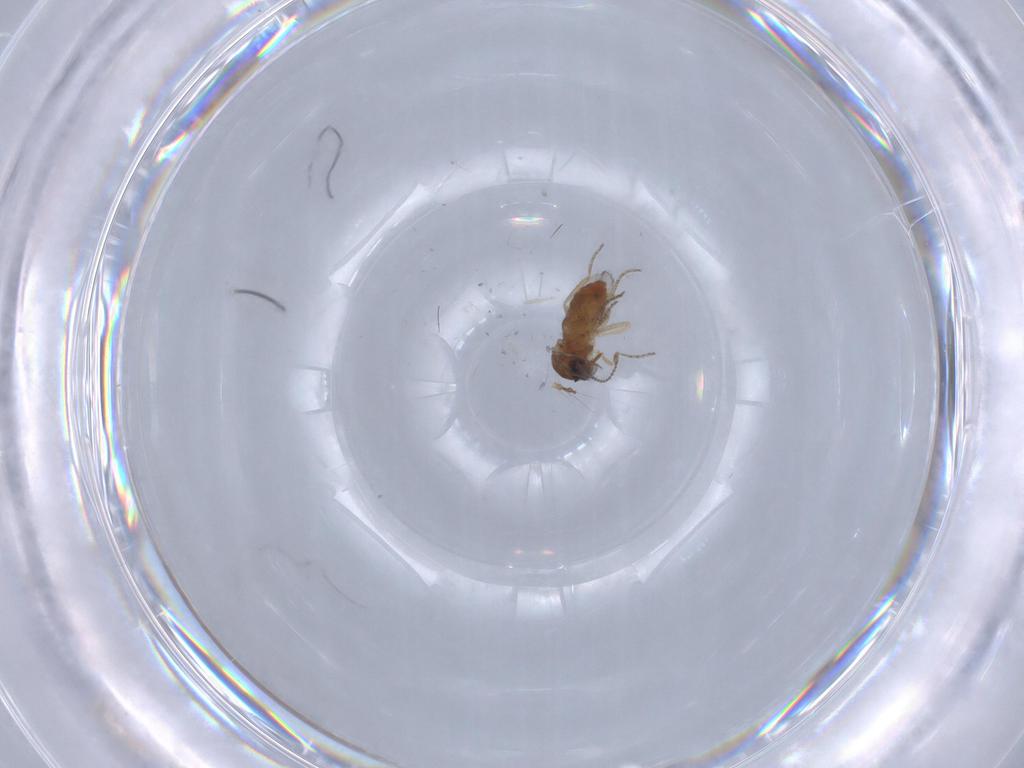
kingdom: Animalia
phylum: Arthropoda
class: Insecta
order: Diptera
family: Ceratopogonidae
